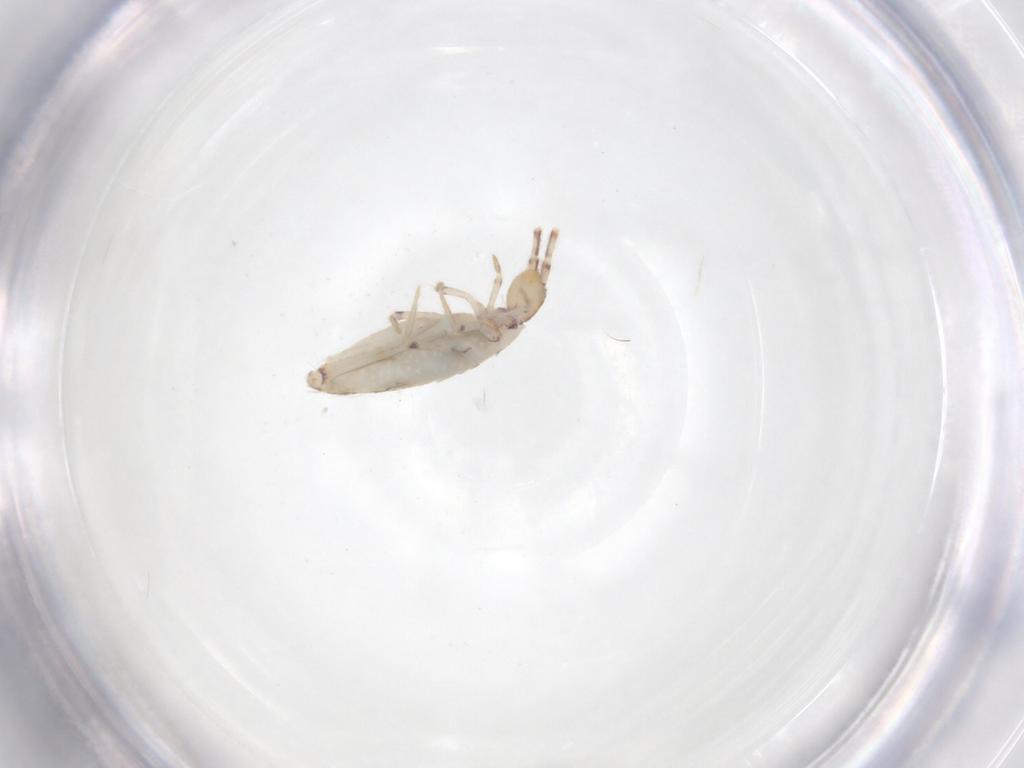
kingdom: Animalia
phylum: Arthropoda
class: Collembola
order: Entomobryomorpha
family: Entomobryidae
